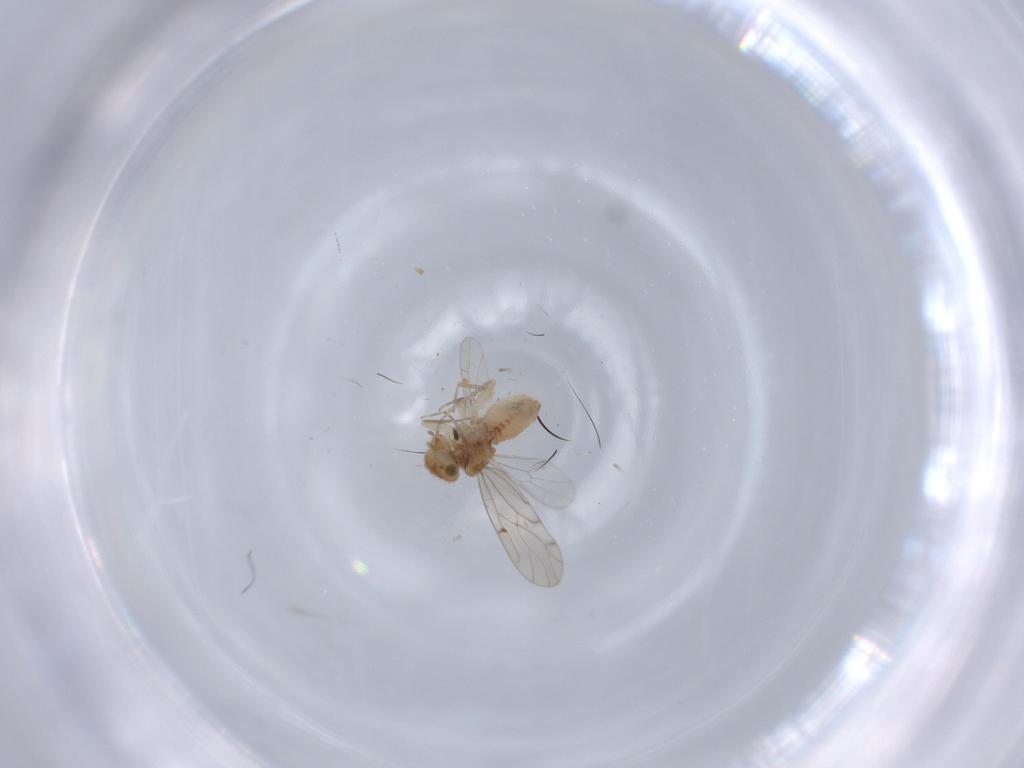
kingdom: Animalia
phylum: Arthropoda
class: Insecta
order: Psocodea
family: Ectopsocidae
